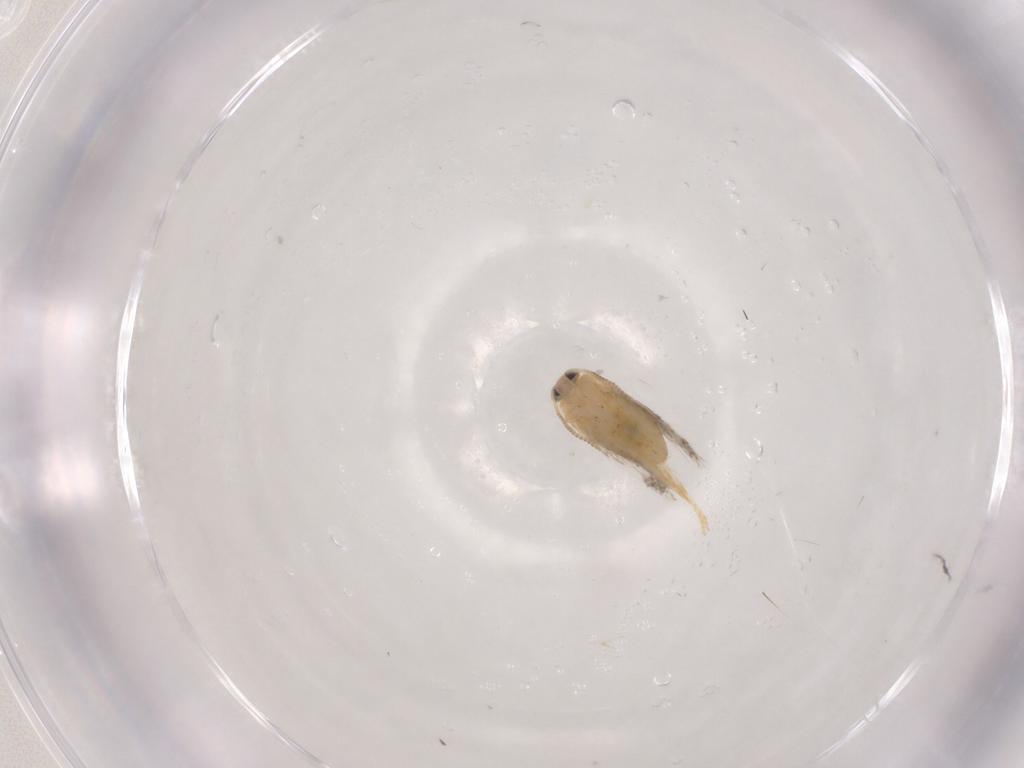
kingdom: Animalia
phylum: Arthropoda
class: Insecta
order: Lepidoptera
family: Nepticulidae
